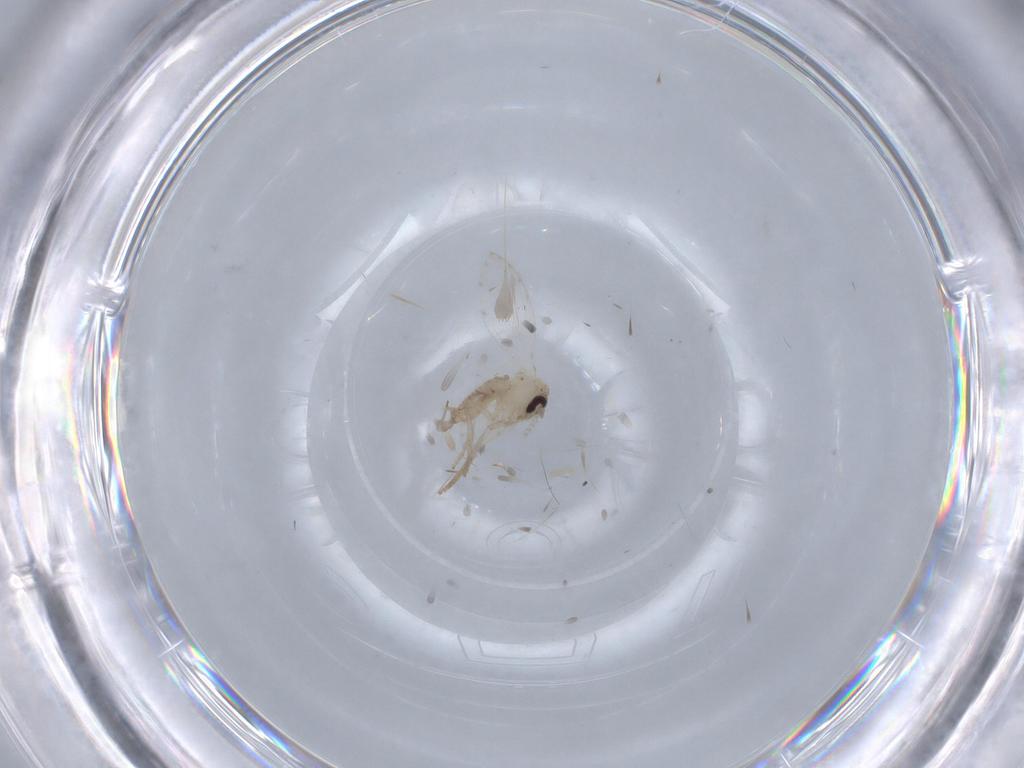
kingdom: Animalia
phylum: Arthropoda
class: Insecta
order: Diptera
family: Psychodidae
